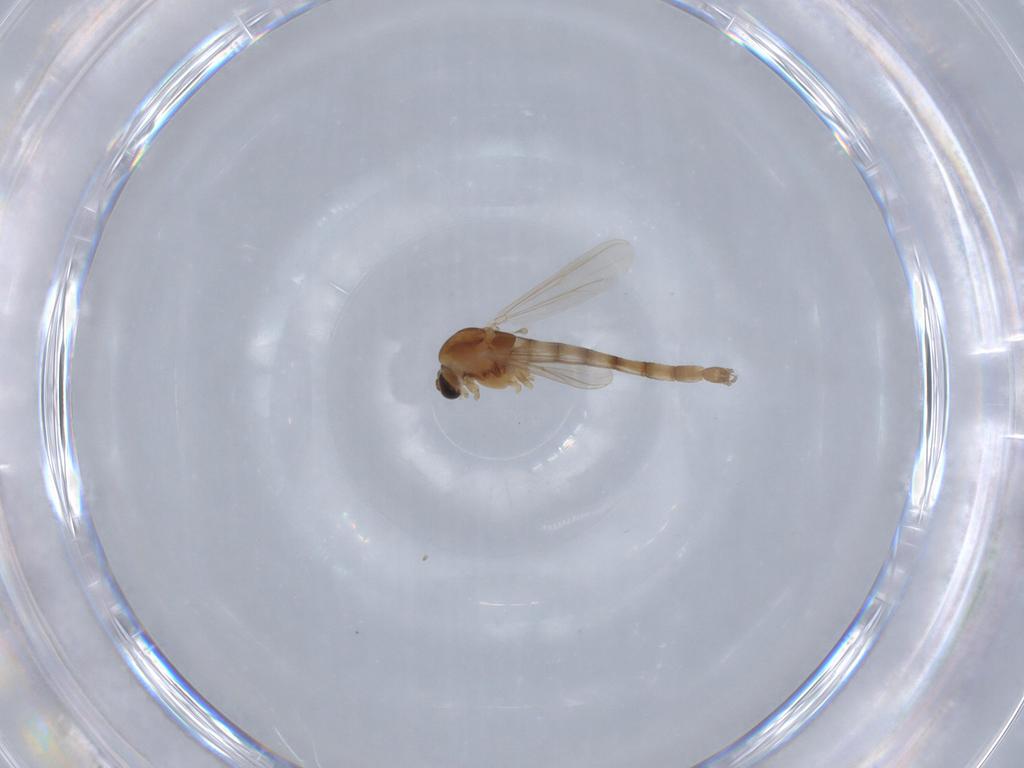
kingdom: Animalia
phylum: Arthropoda
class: Insecta
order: Diptera
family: Chironomidae
